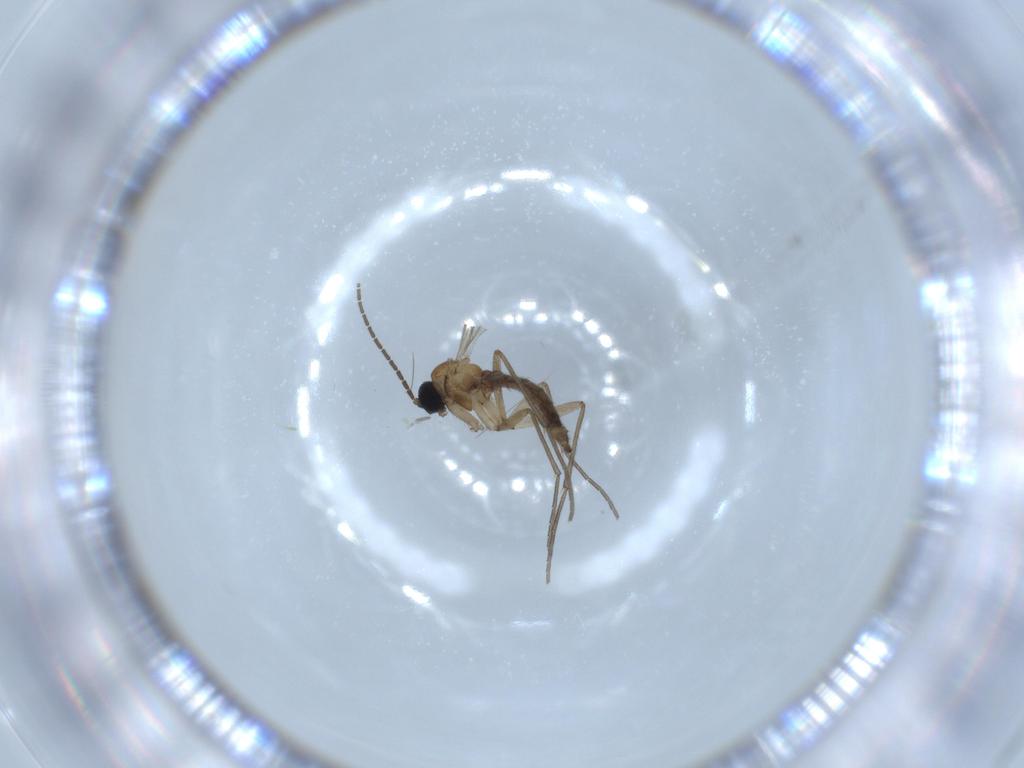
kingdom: Animalia
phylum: Arthropoda
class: Insecta
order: Diptera
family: Sciaridae
